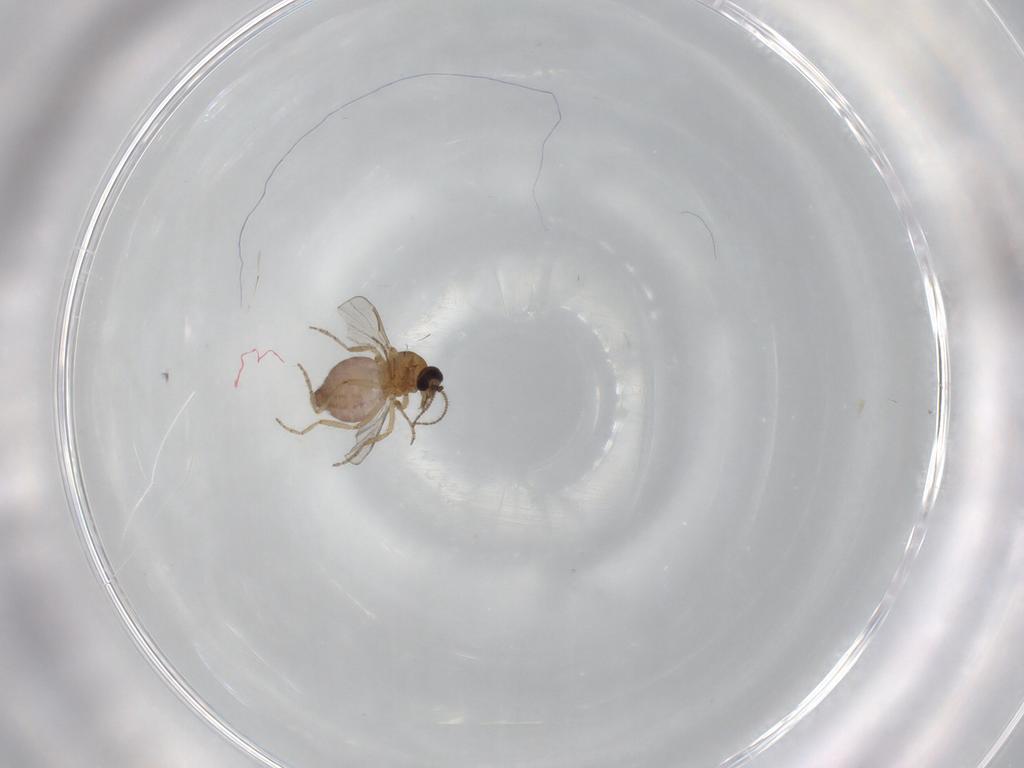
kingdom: Animalia
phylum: Arthropoda
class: Insecta
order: Diptera
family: Ceratopogonidae
